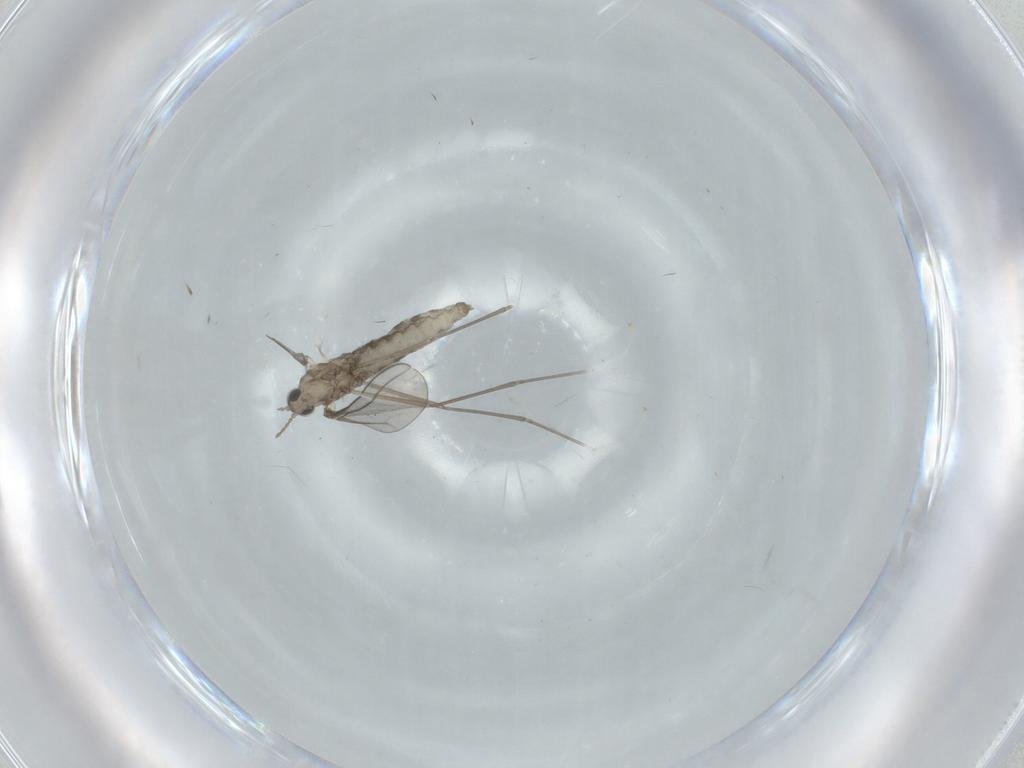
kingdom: Animalia
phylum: Arthropoda
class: Insecta
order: Diptera
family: Cecidomyiidae
